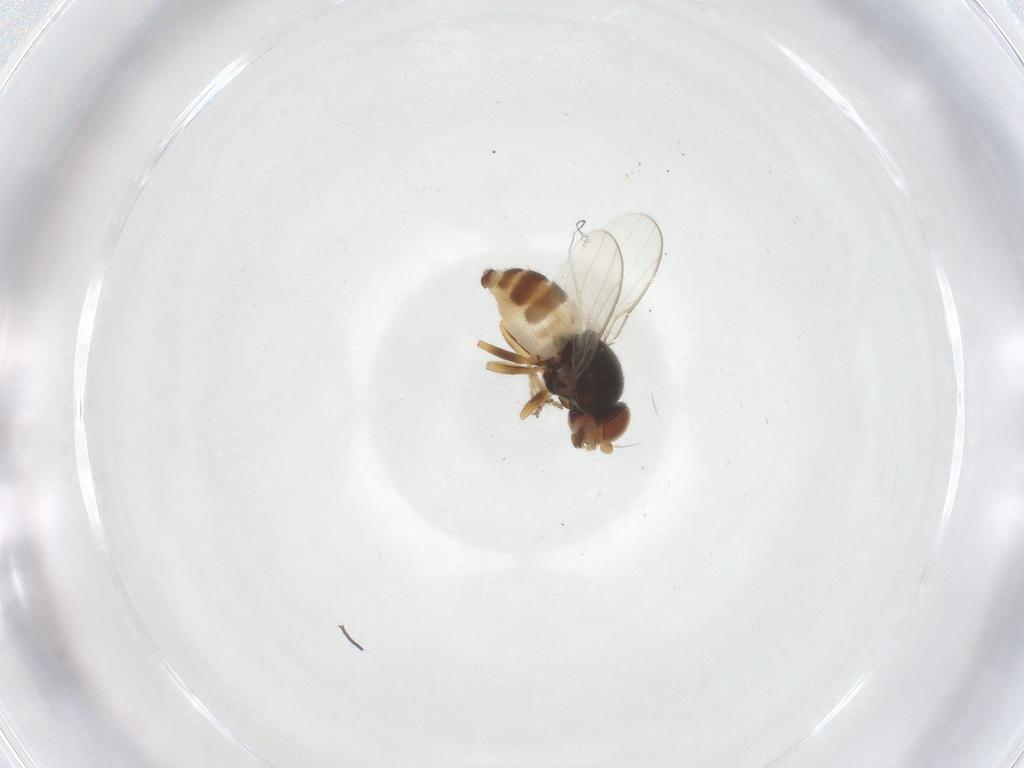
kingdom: Animalia
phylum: Arthropoda
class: Insecta
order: Diptera
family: Chloropidae
